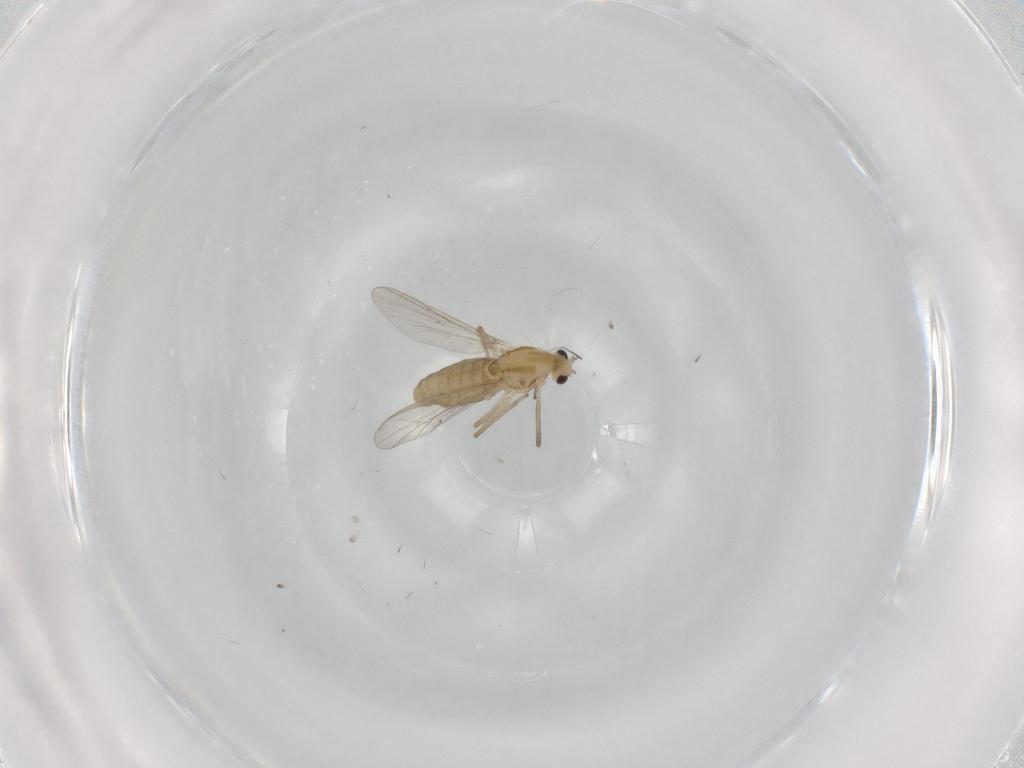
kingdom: Animalia
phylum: Arthropoda
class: Insecta
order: Diptera
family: Chironomidae
